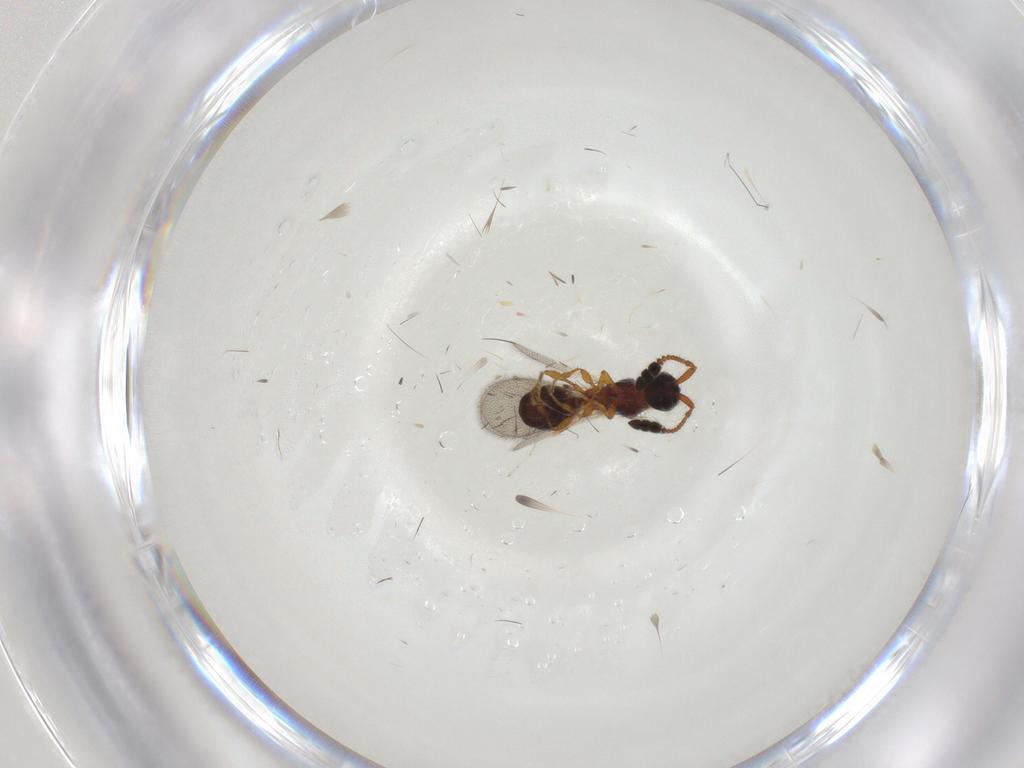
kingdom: Animalia
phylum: Arthropoda
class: Insecta
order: Hymenoptera
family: Diapriidae
